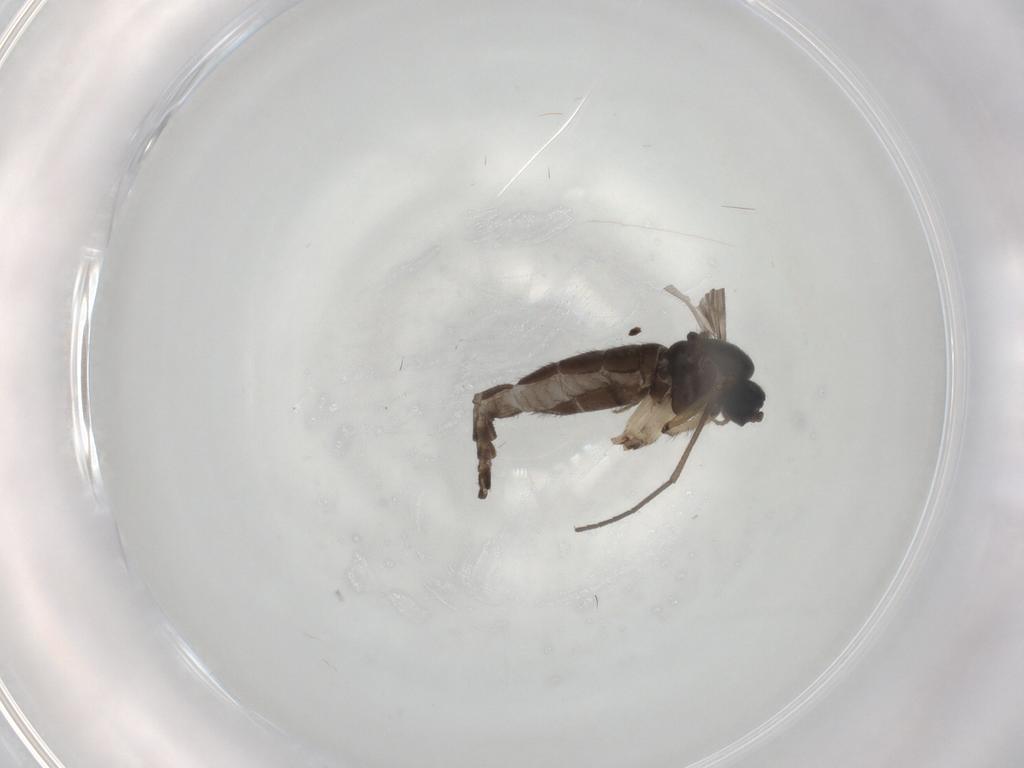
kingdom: Animalia
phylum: Arthropoda
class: Insecta
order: Diptera
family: Sciaridae
